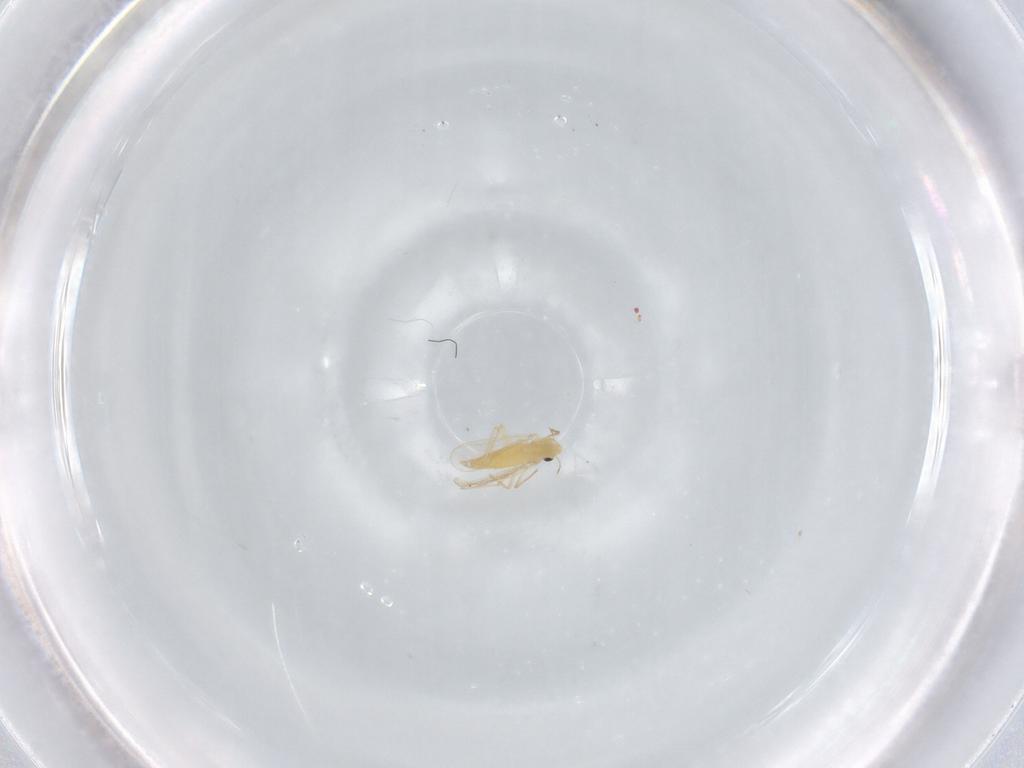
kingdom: Animalia
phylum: Arthropoda
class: Insecta
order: Diptera
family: Chironomidae
